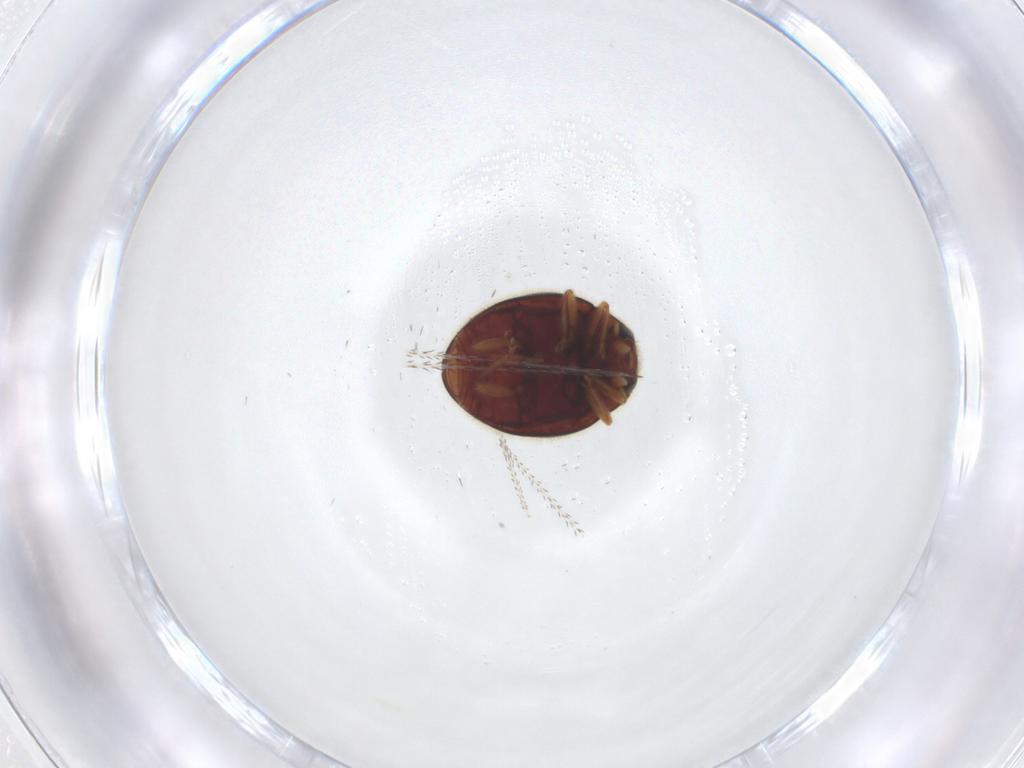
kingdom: Animalia
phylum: Arthropoda
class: Insecta
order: Coleoptera
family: Coccinellidae
